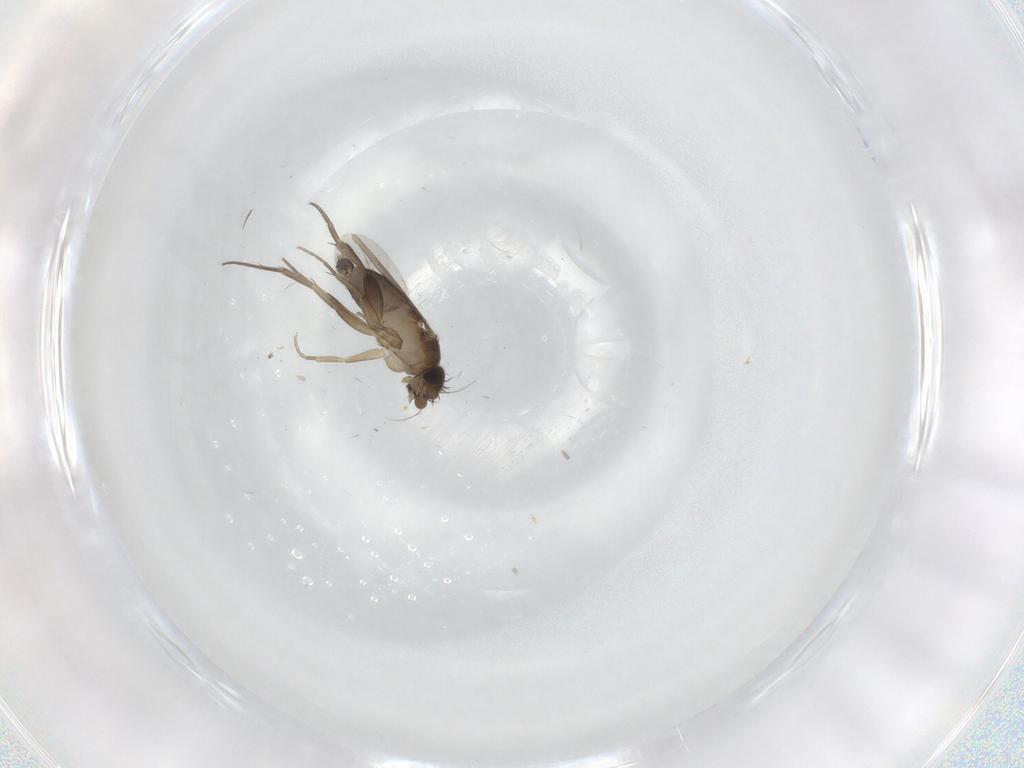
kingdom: Animalia
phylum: Arthropoda
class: Insecta
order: Diptera
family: Phoridae
